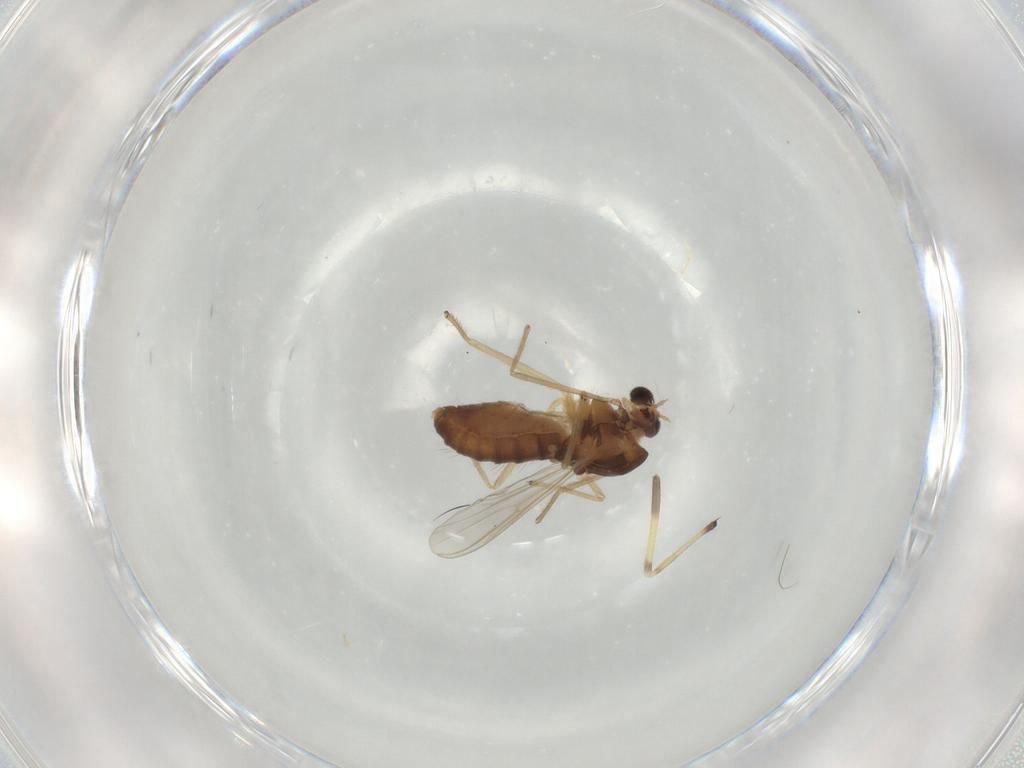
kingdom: Animalia
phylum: Arthropoda
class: Insecta
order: Diptera
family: Chironomidae
